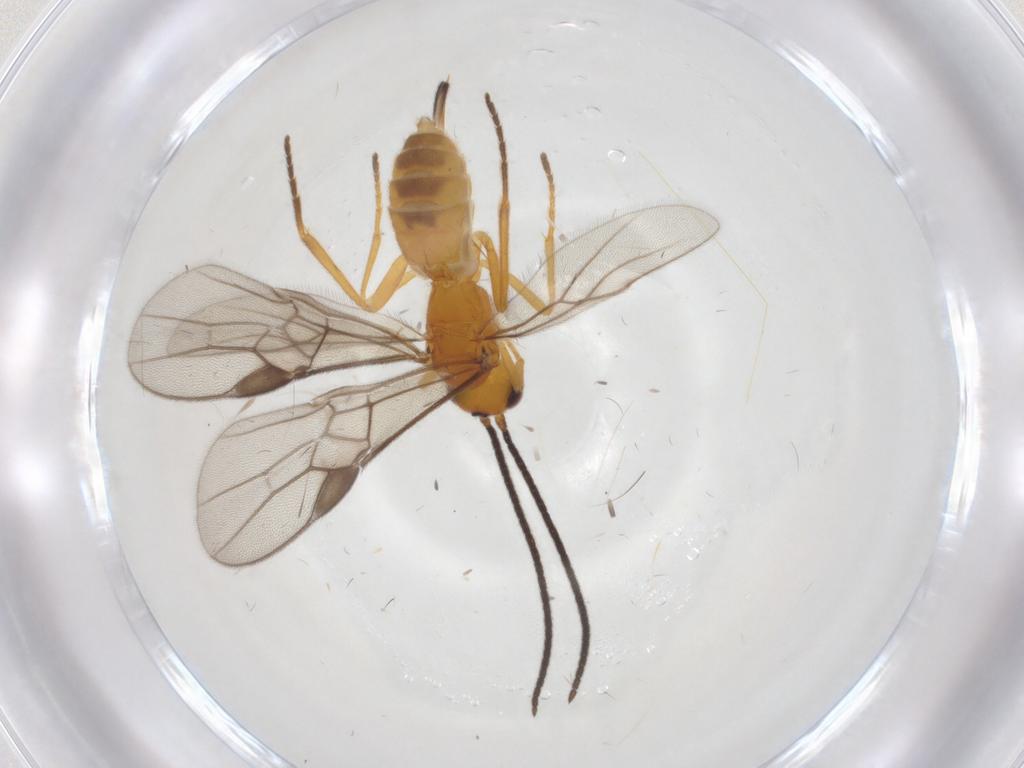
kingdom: Animalia
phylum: Arthropoda
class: Insecta
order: Hymenoptera
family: Braconidae
